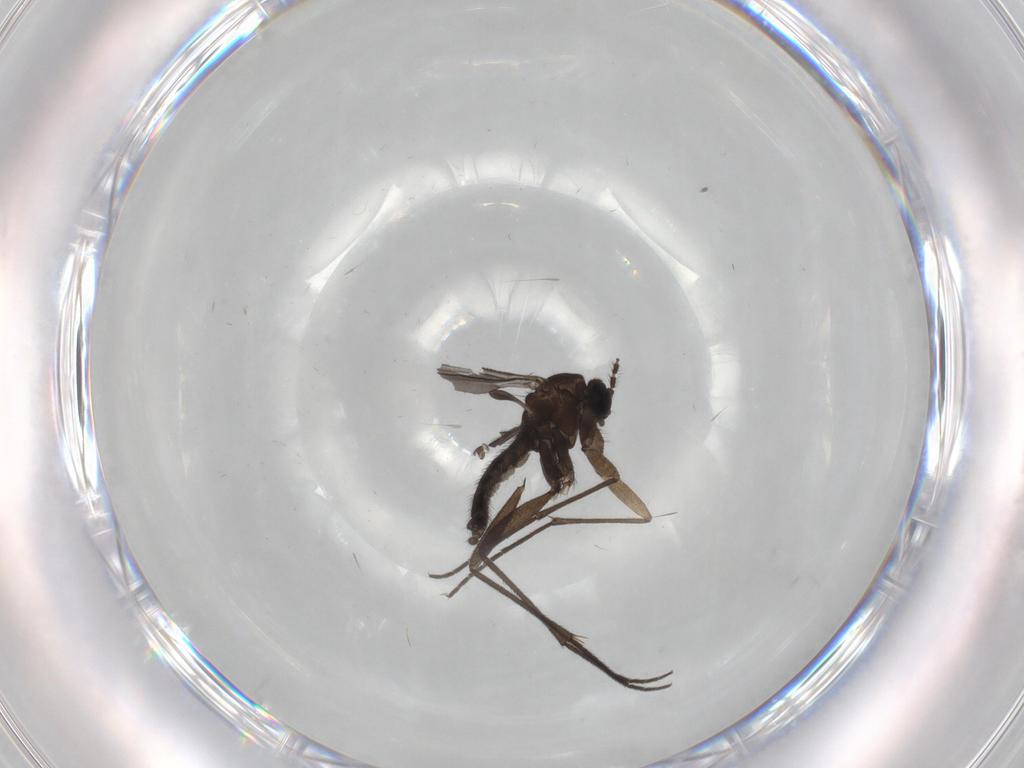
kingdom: Animalia
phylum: Arthropoda
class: Insecta
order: Diptera
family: Sciaridae
